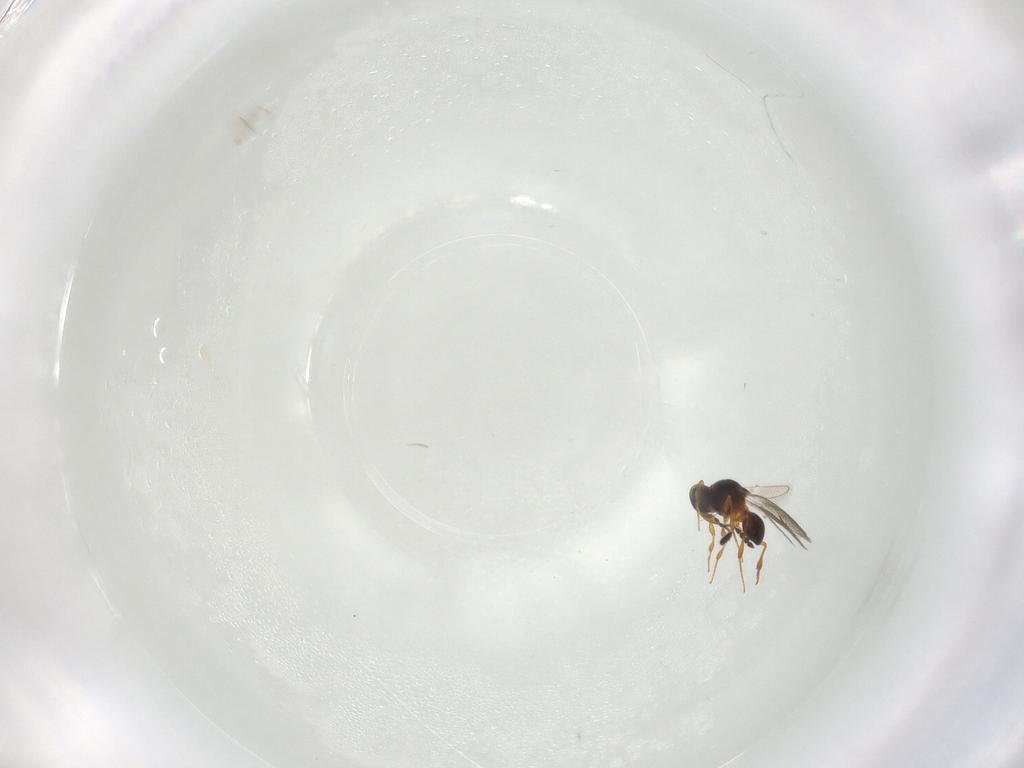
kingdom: Animalia
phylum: Arthropoda
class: Insecta
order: Hymenoptera
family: Platygastridae
